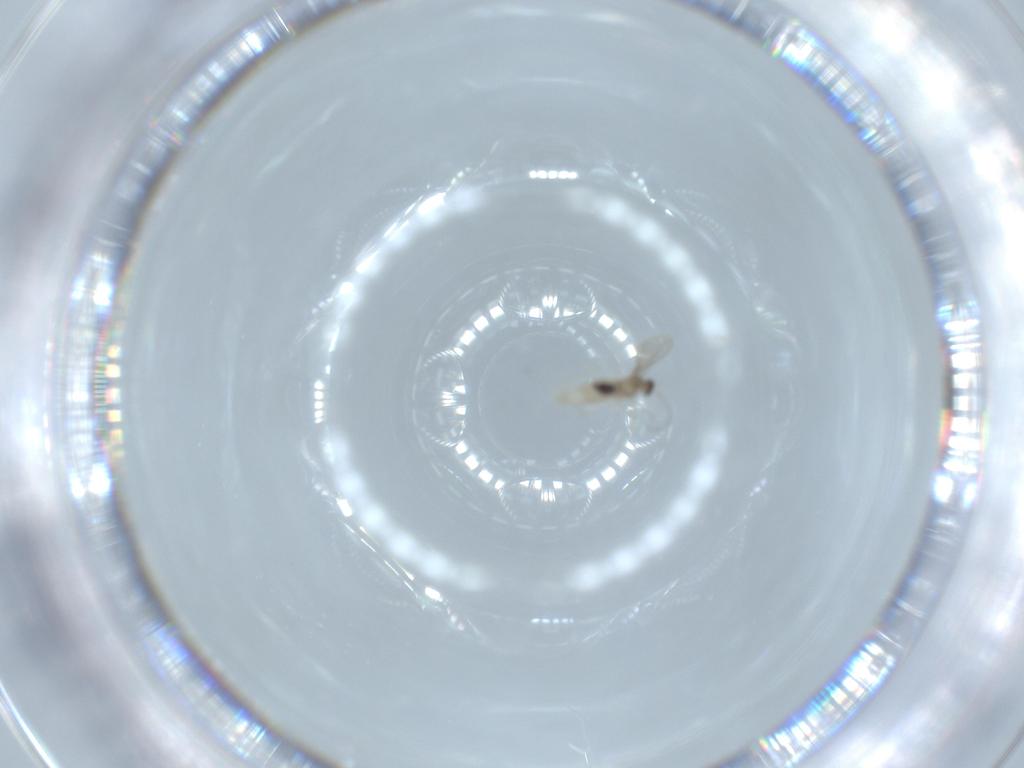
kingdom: Animalia
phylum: Arthropoda
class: Insecta
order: Diptera
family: Cecidomyiidae
